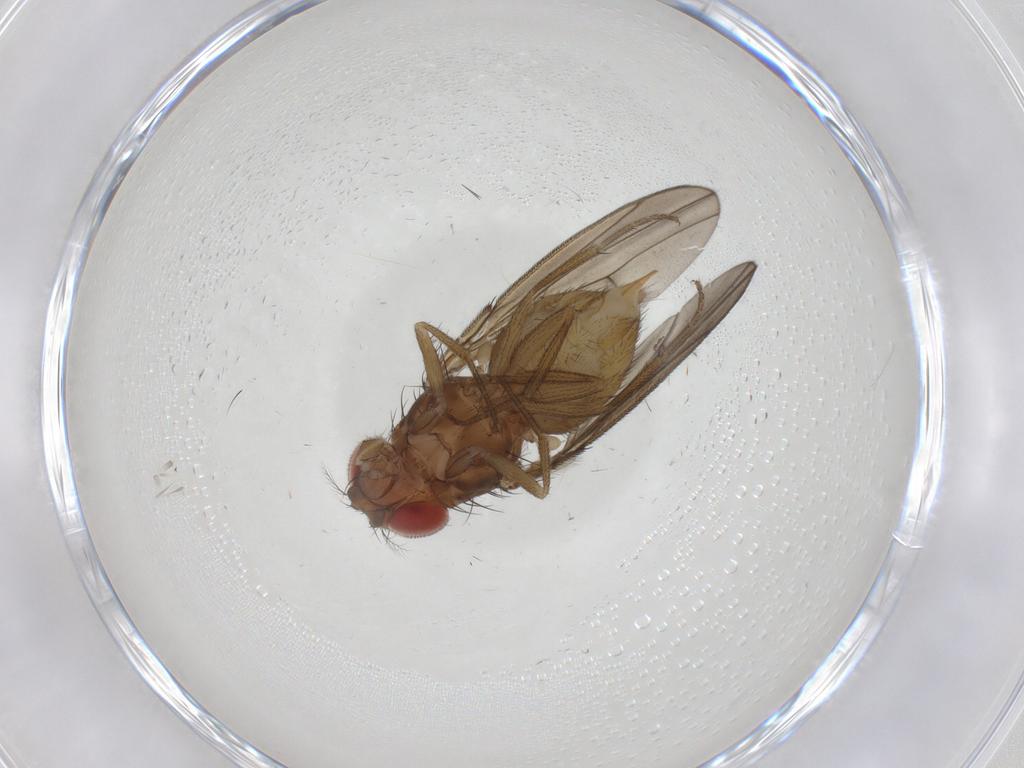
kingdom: Animalia
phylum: Arthropoda
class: Insecta
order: Diptera
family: Drosophilidae
